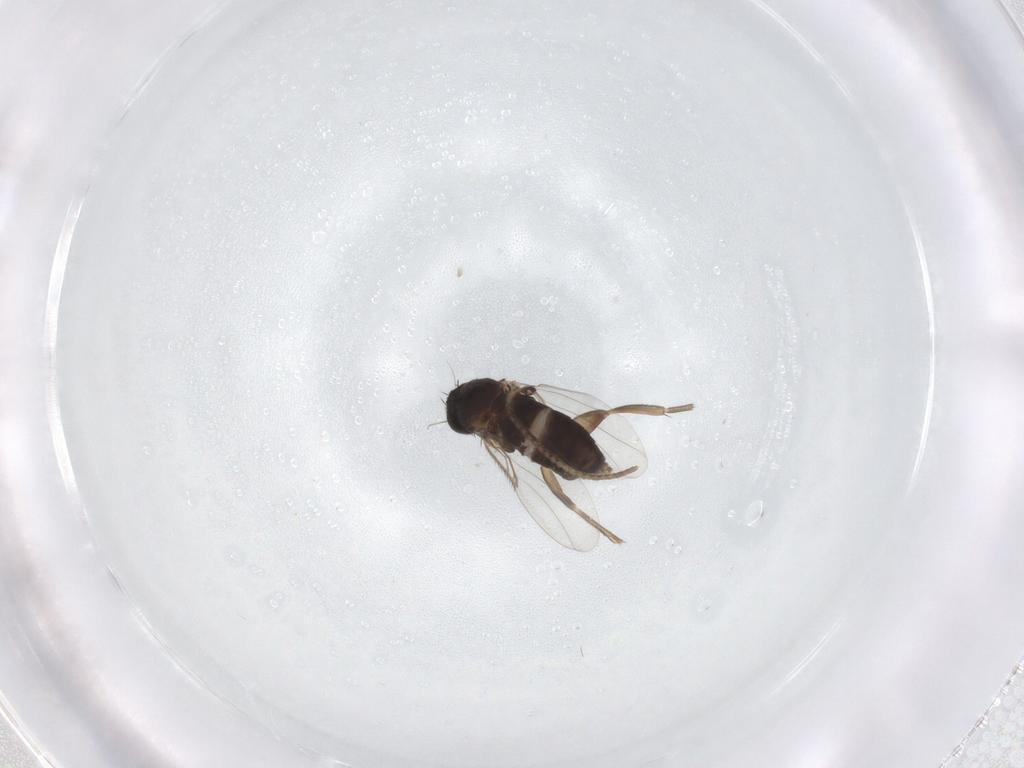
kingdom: Animalia
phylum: Arthropoda
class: Insecta
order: Diptera
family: Phoridae
